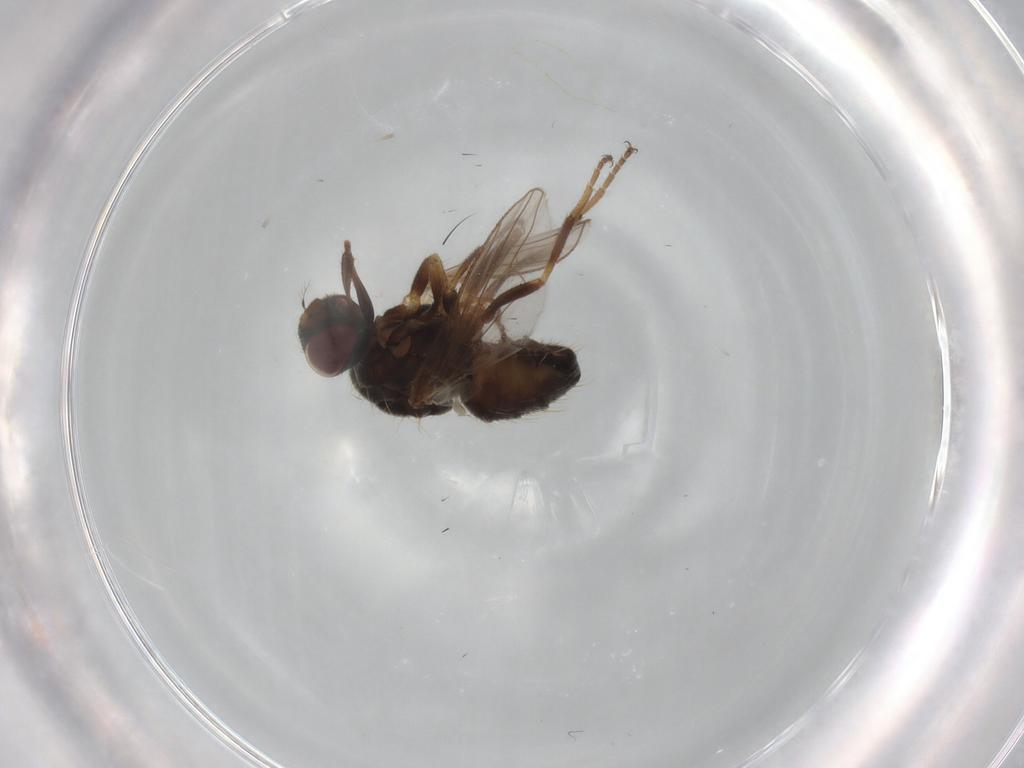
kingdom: Animalia
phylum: Arthropoda
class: Insecta
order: Diptera
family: Chironomidae
